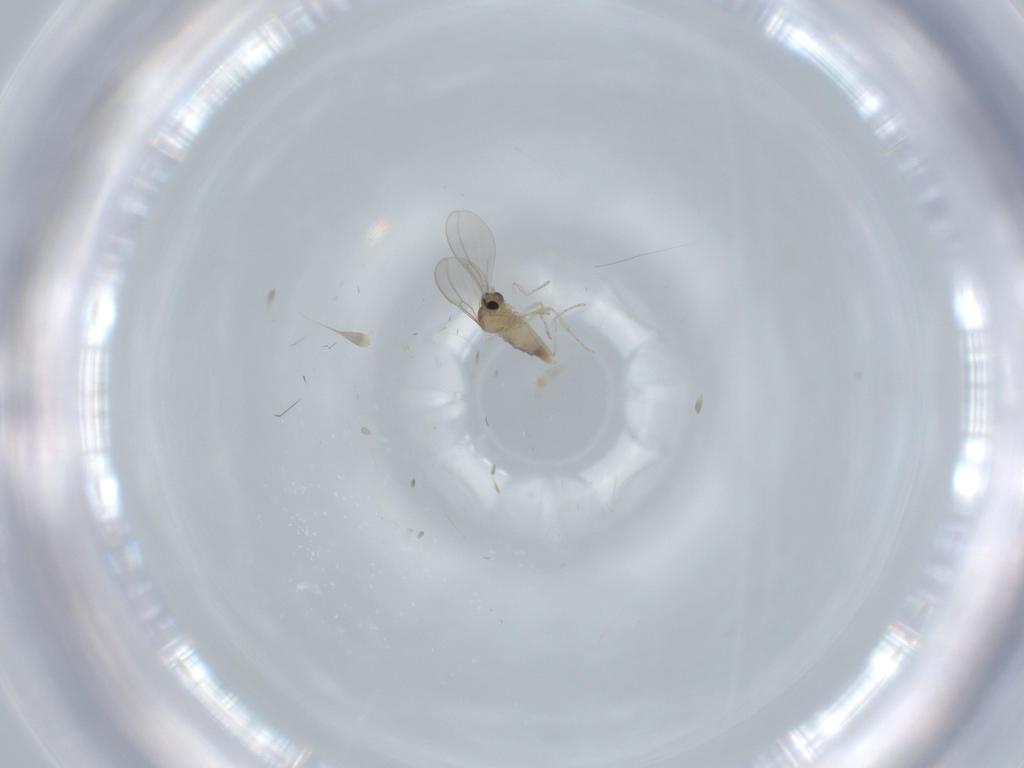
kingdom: Animalia
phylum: Arthropoda
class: Insecta
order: Diptera
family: Cecidomyiidae
